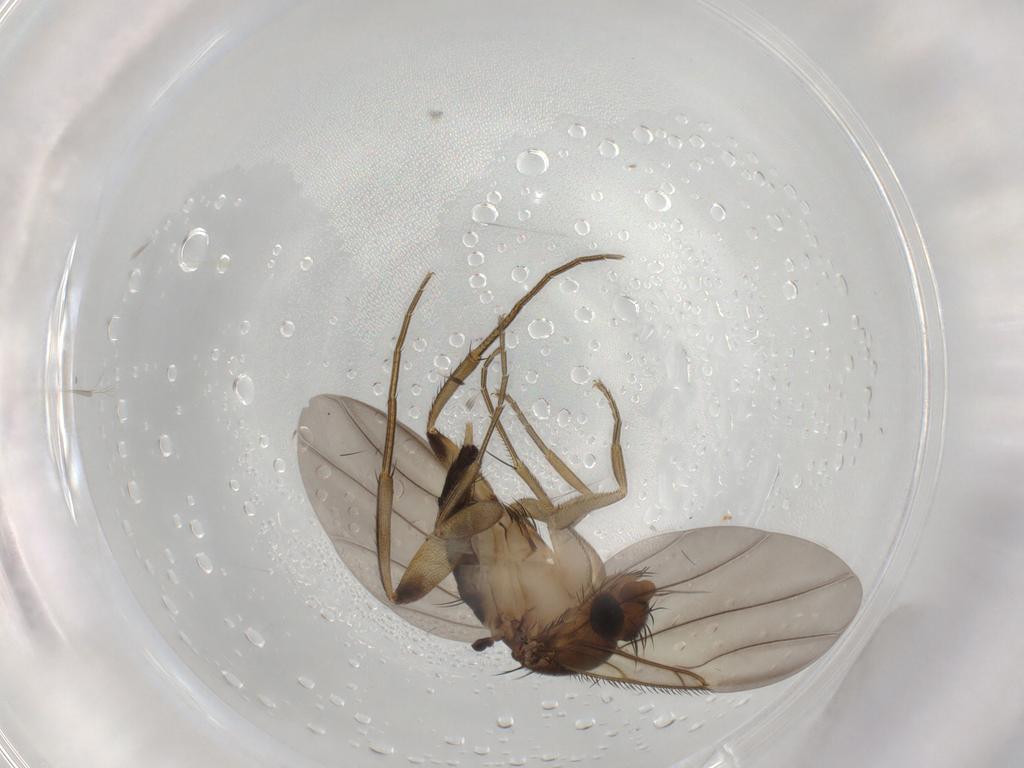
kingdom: Animalia
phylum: Arthropoda
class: Insecta
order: Diptera
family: Phoridae
